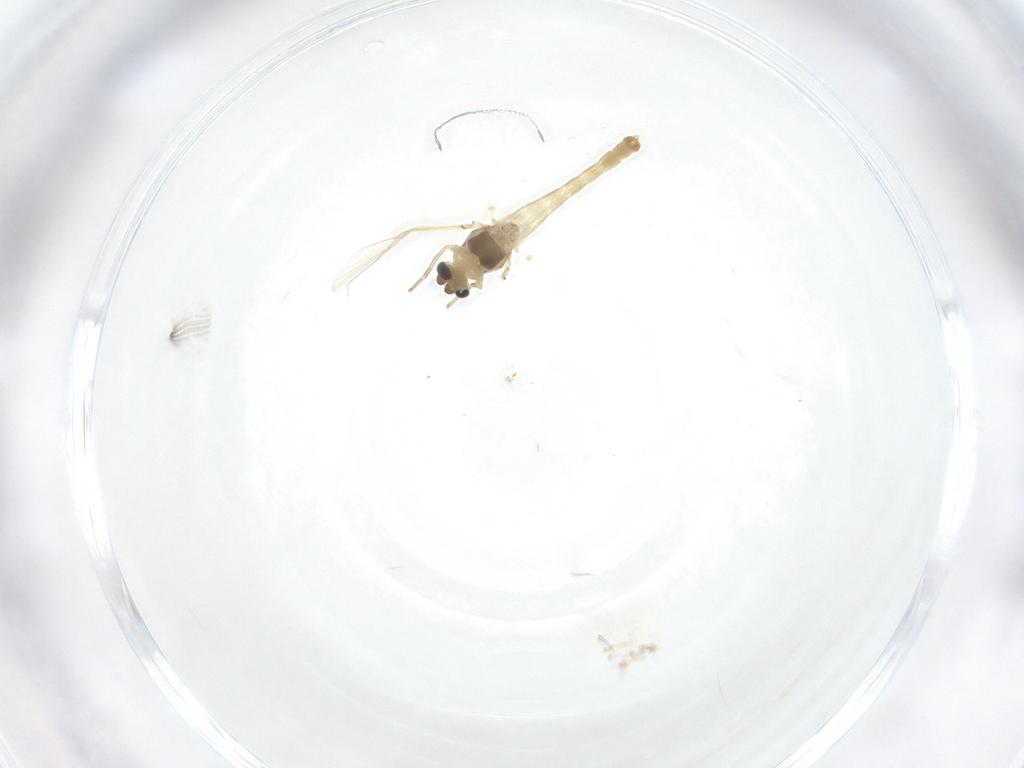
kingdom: Animalia
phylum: Arthropoda
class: Insecta
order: Diptera
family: Chironomidae
